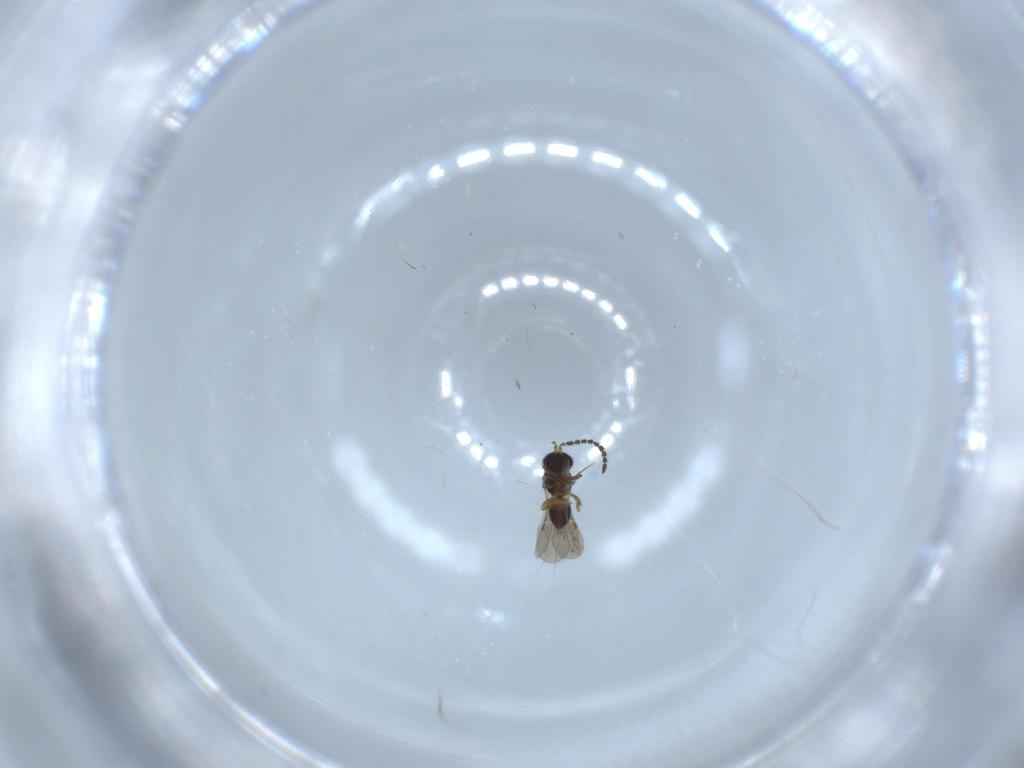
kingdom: Animalia
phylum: Arthropoda
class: Insecta
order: Hymenoptera
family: Ceraphronidae
